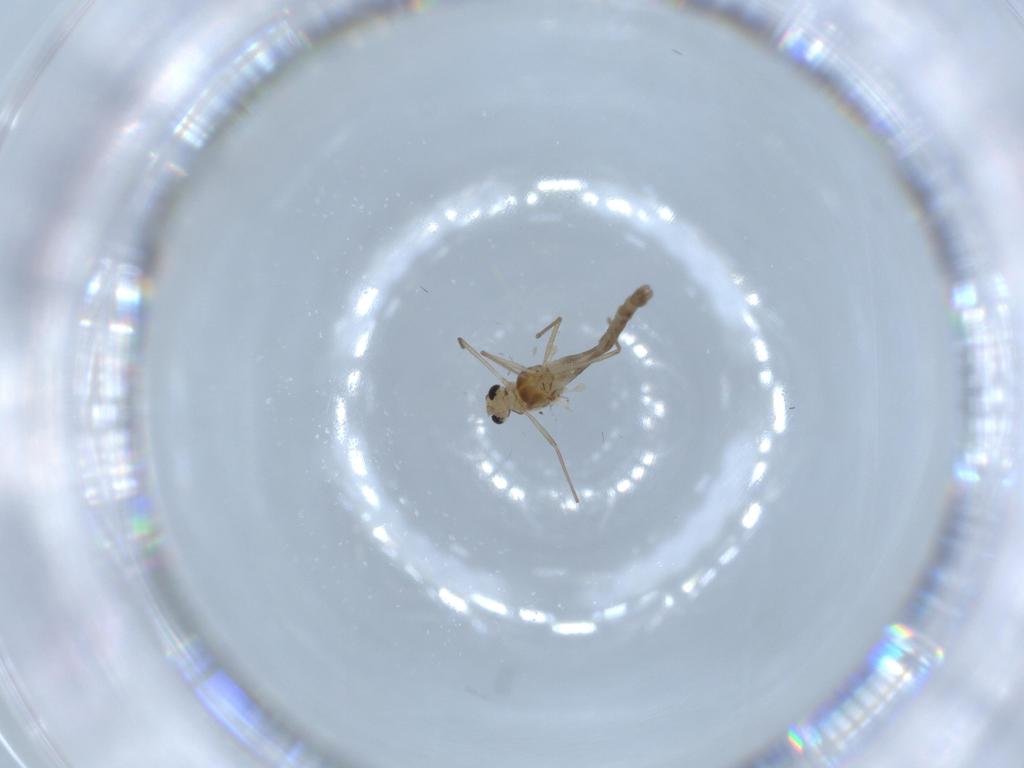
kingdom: Animalia
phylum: Arthropoda
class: Insecta
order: Diptera
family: Chironomidae
